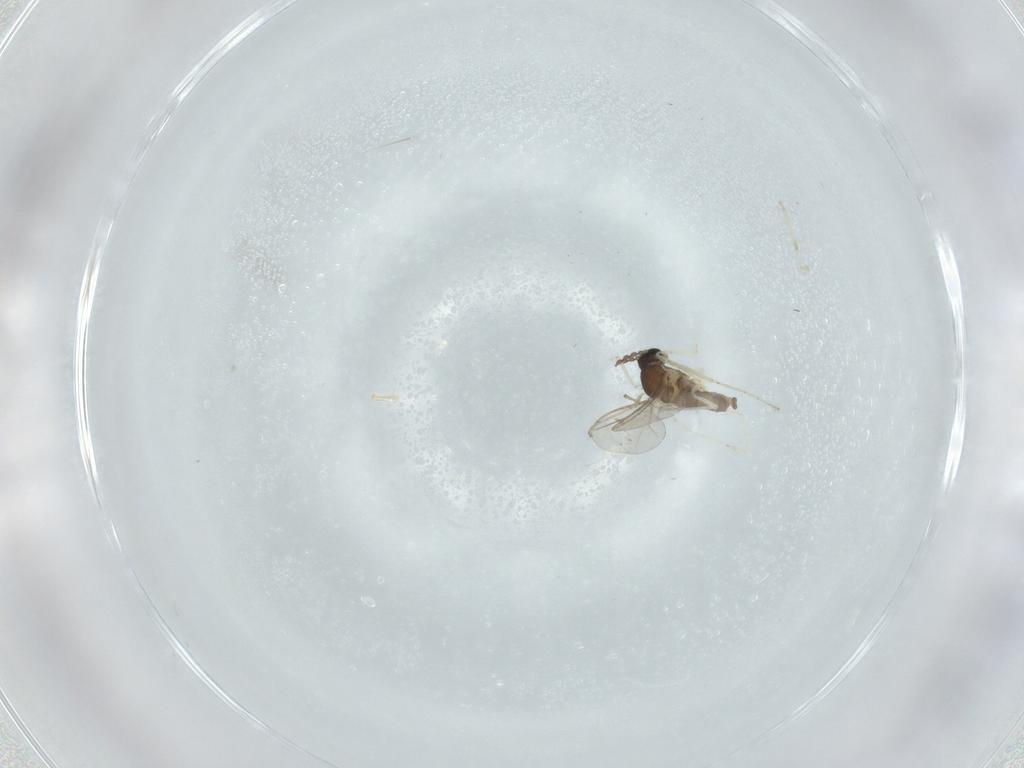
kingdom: Animalia
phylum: Arthropoda
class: Insecta
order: Diptera
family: Cecidomyiidae
